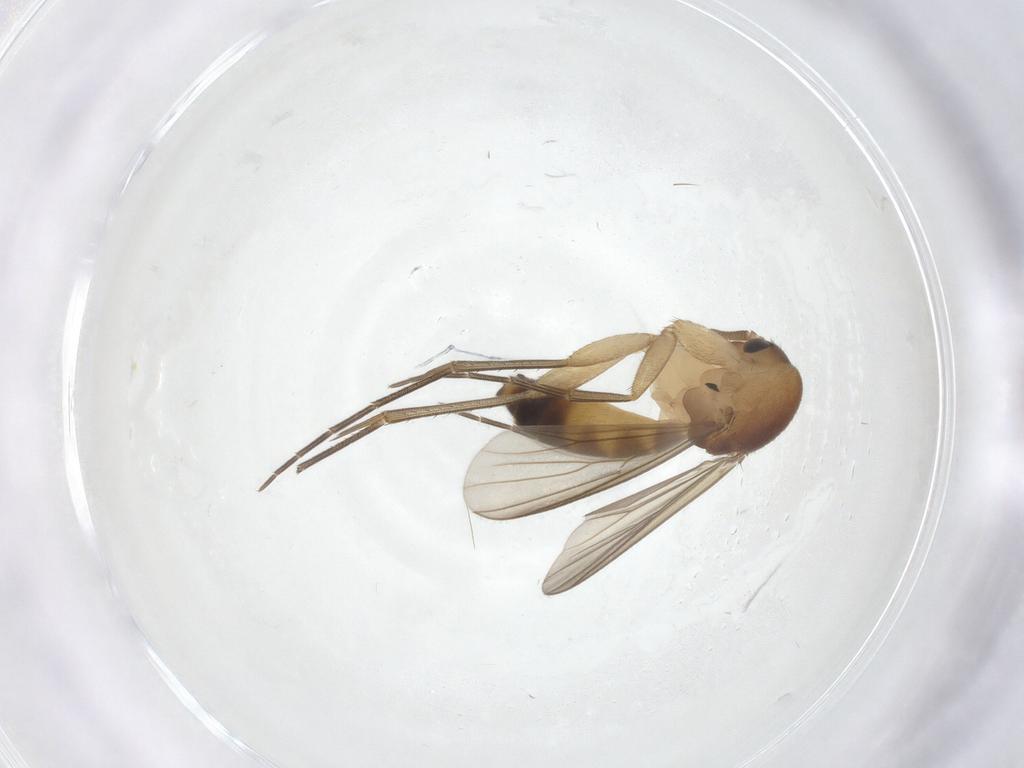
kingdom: Animalia
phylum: Arthropoda
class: Insecta
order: Diptera
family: Mycetophilidae
